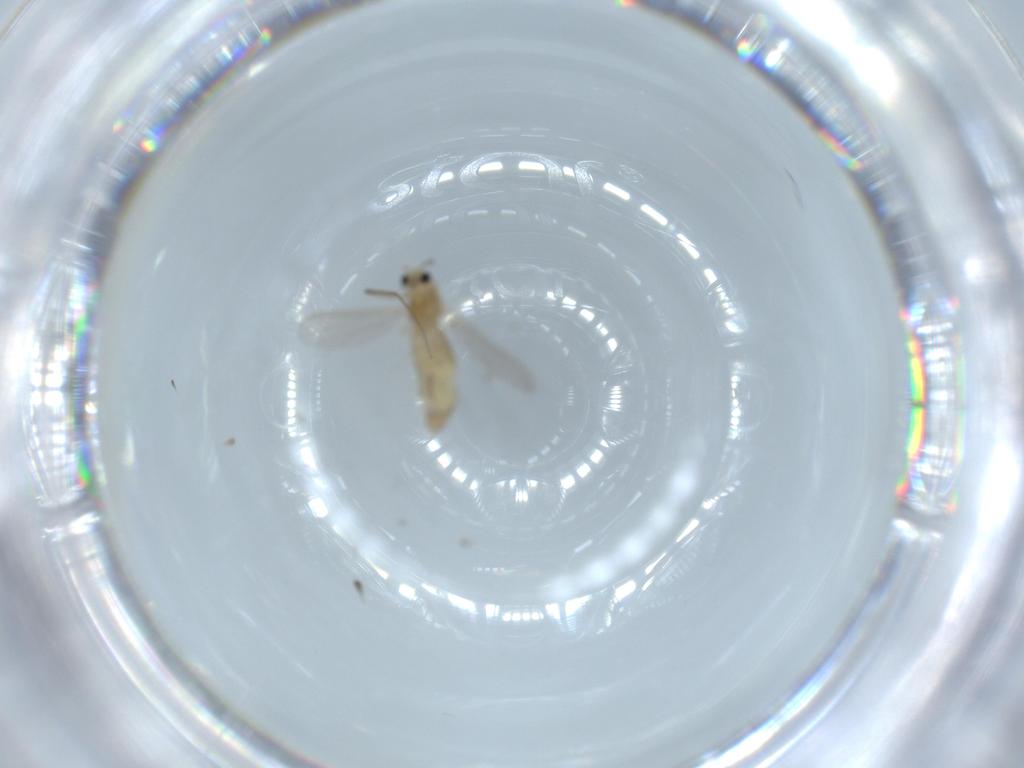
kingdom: Animalia
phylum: Arthropoda
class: Insecta
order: Diptera
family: Chironomidae
